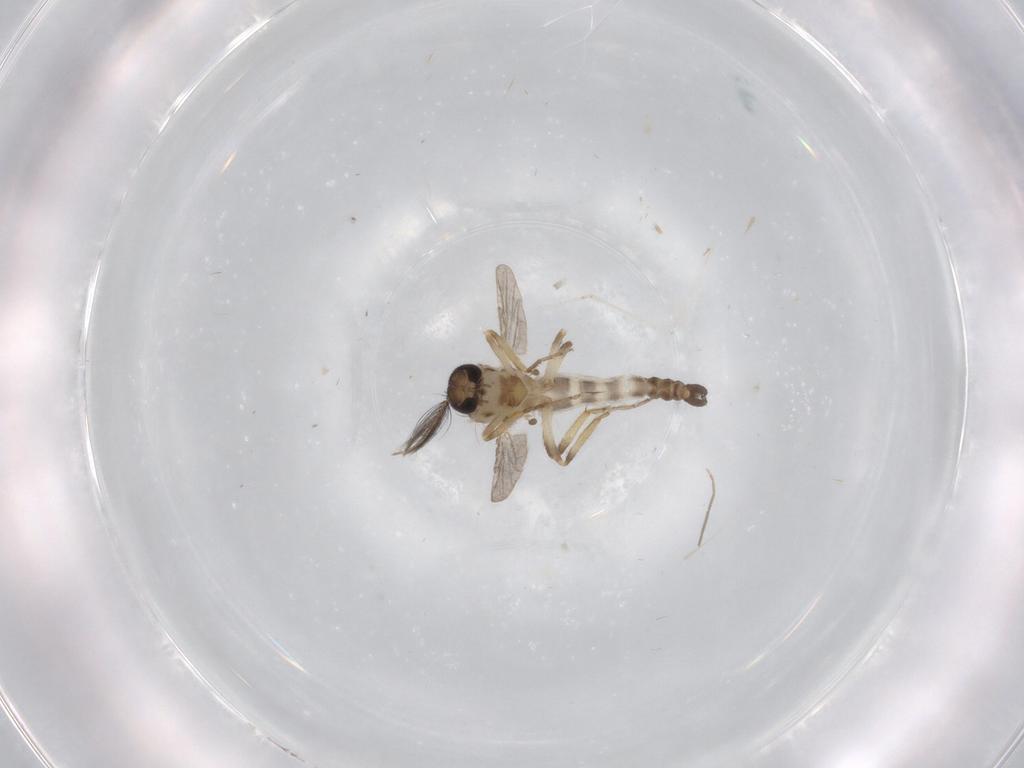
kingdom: Animalia
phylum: Arthropoda
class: Insecta
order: Diptera
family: Ceratopogonidae
